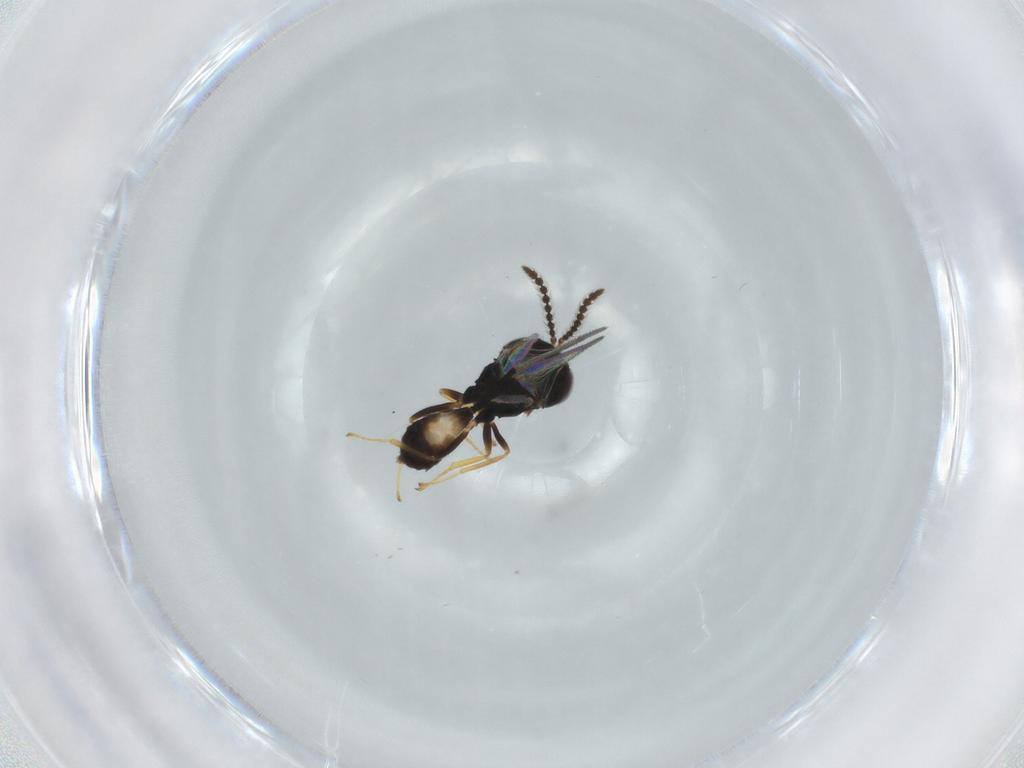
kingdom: Animalia
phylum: Arthropoda
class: Insecta
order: Hymenoptera
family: Pteromalidae
